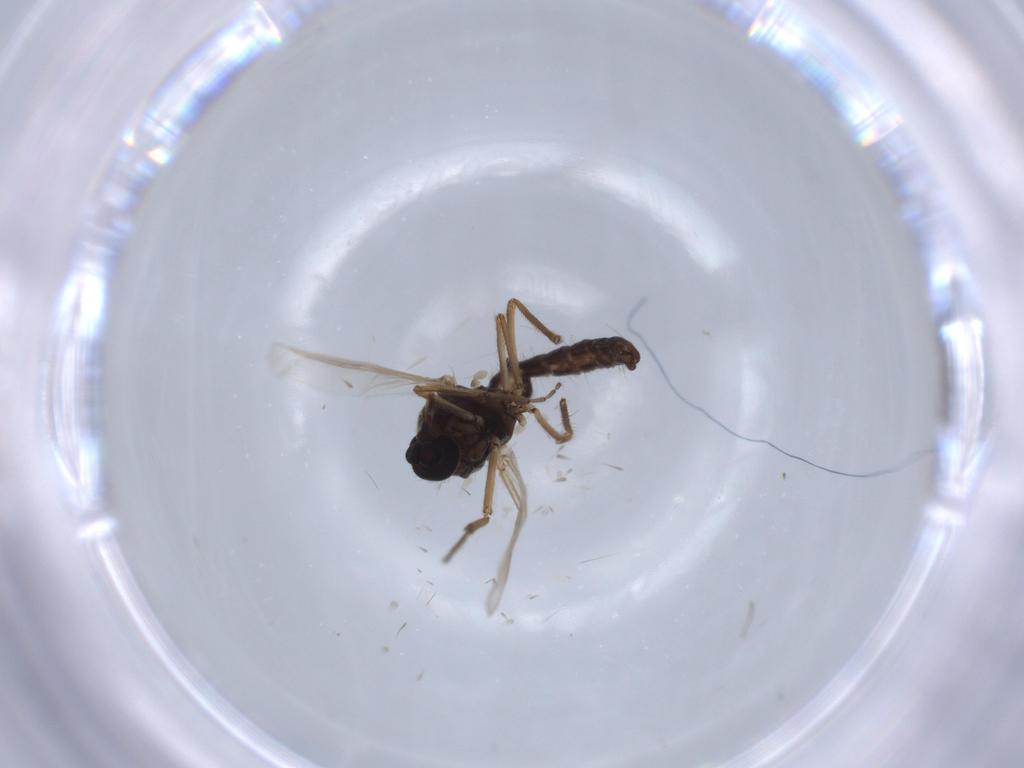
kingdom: Animalia
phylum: Arthropoda
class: Insecta
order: Diptera
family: Ceratopogonidae
